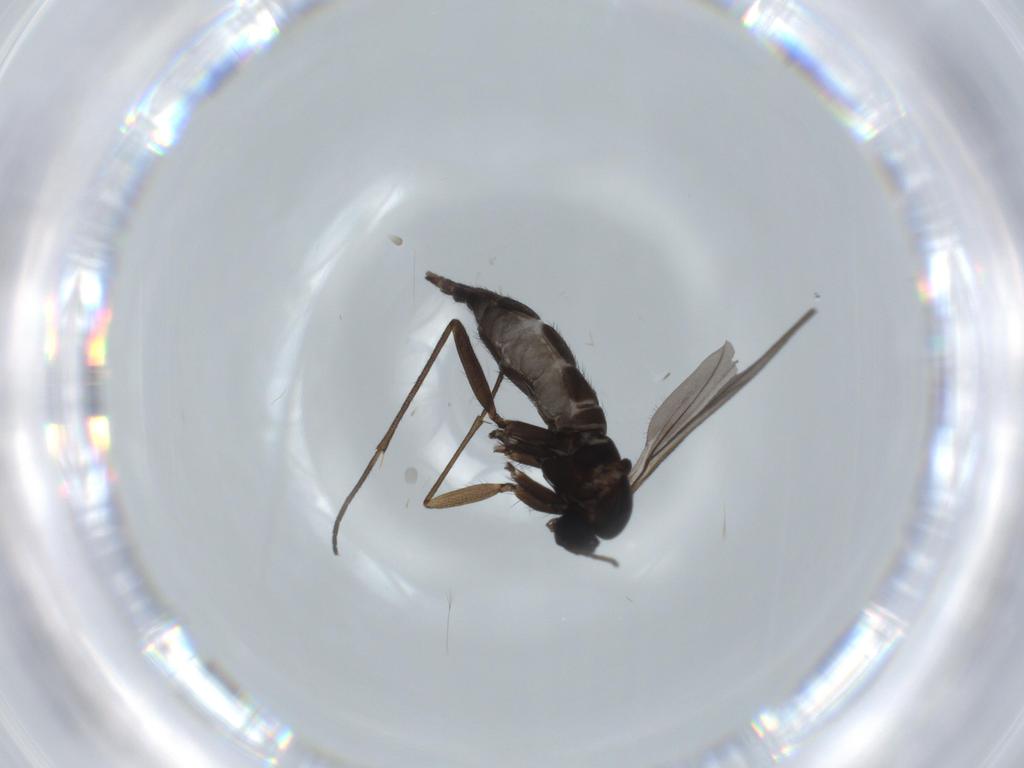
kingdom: Animalia
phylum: Arthropoda
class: Insecta
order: Diptera
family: Sciaridae
